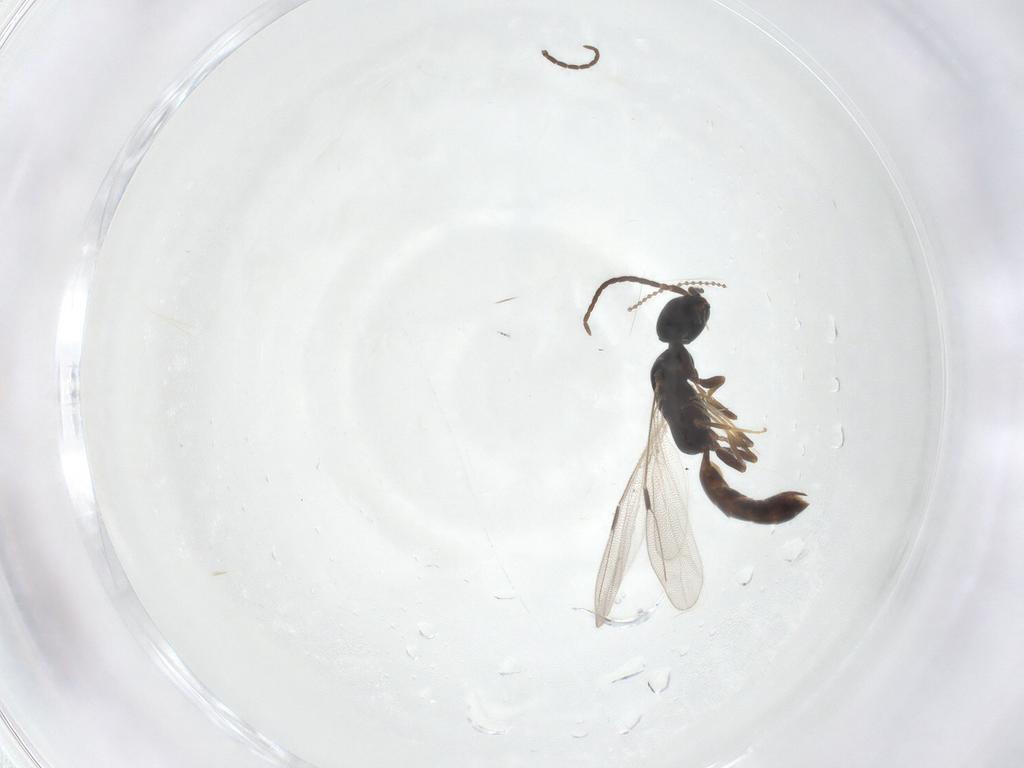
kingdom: Animalia
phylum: Arthropoda
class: Insecta
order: Hymenoptera
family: Bethylidae
